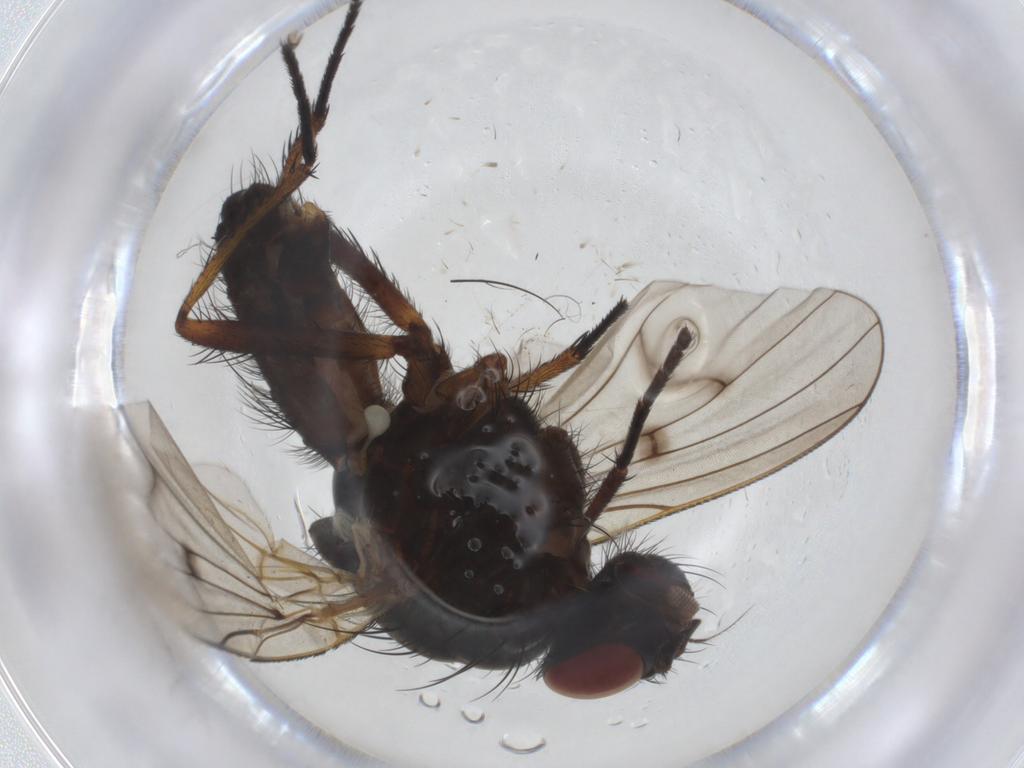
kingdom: Animalia
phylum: Arthropoda
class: Insecta
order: Diptera
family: Anthomyiidae
